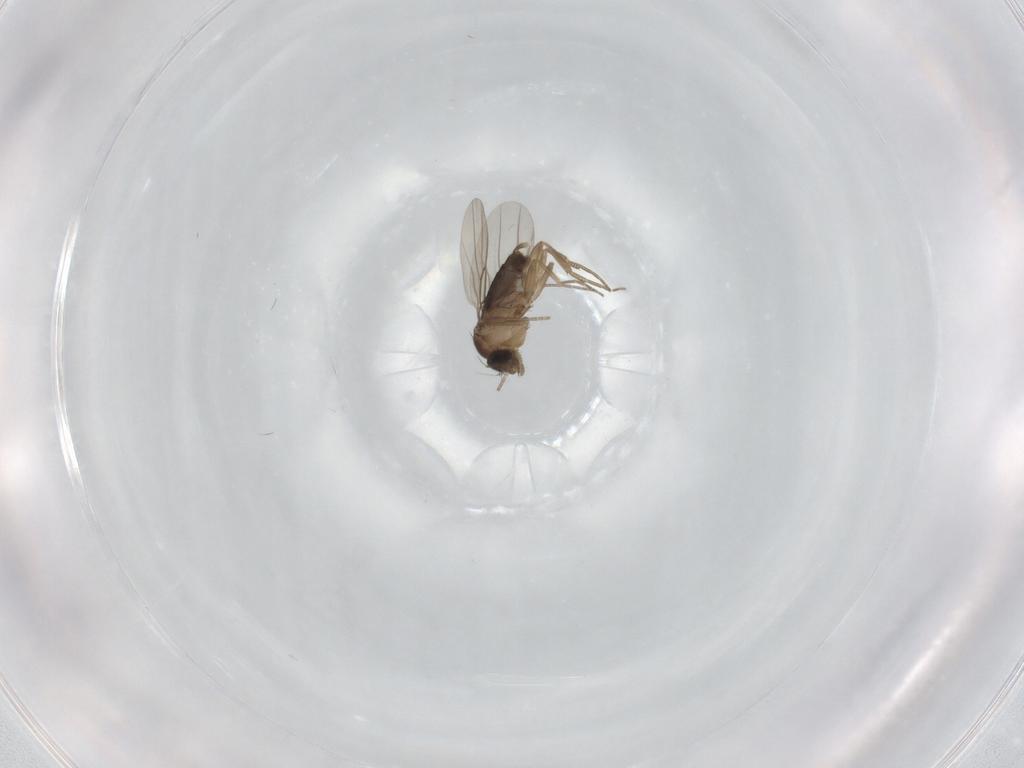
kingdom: Animalia
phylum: Arthropoda
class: Insecta
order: Diptera
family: Phoridae
